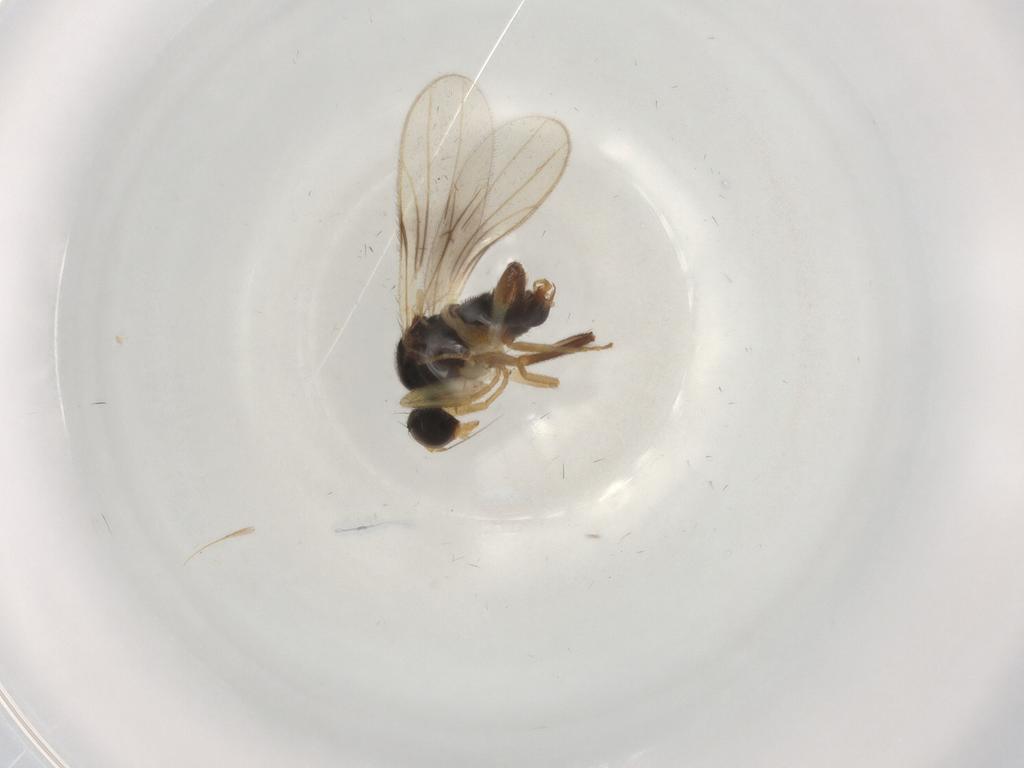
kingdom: Animalia
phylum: Arthropoda
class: Insecta
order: Diptera
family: Hybotidae
